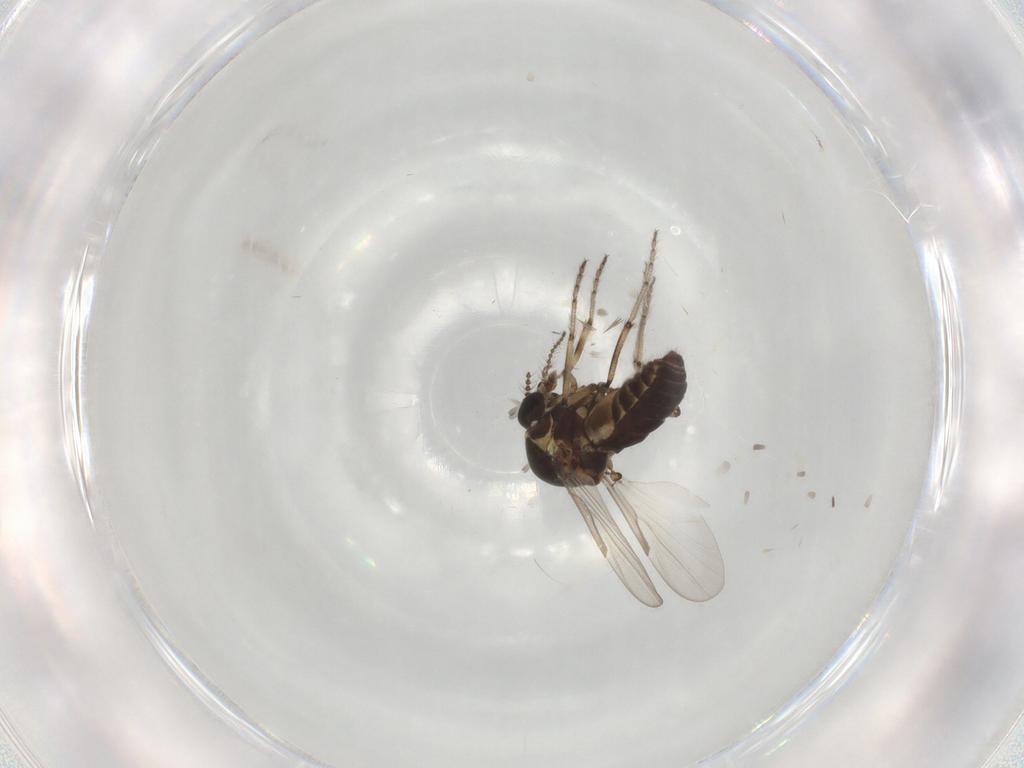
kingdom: Animalia
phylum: Arthropoda
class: Insecta
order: Diptera
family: Ceratopogonidae
